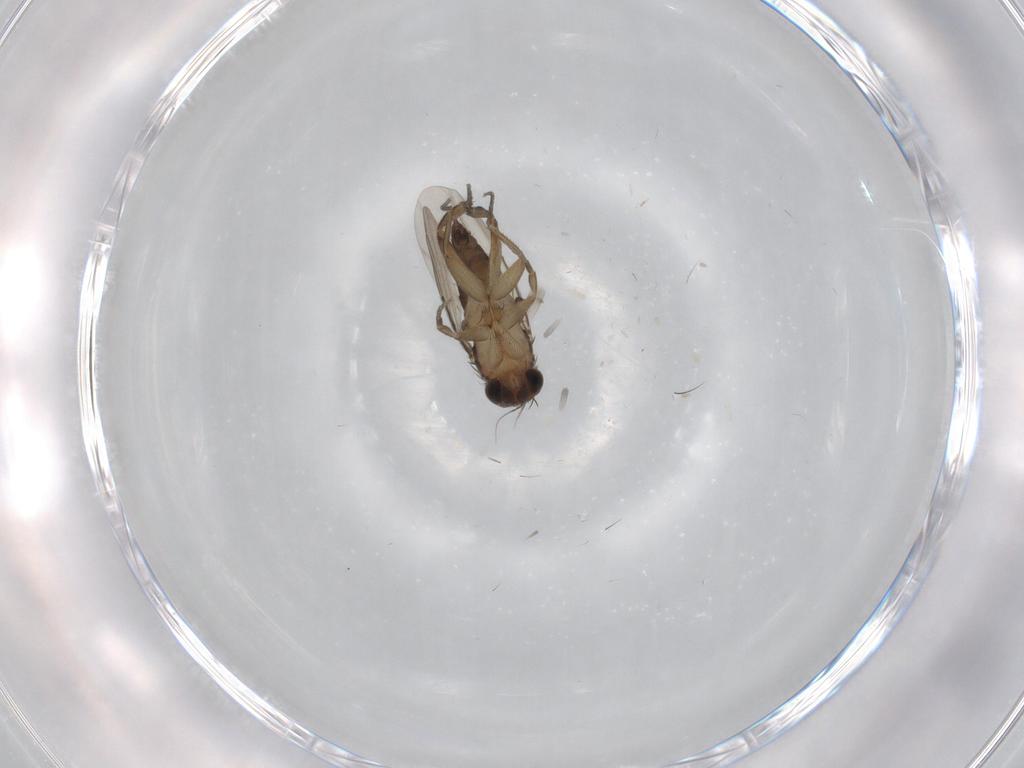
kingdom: Animalia
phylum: Arthropoda
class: Insecta
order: Diptera
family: Phoridae
